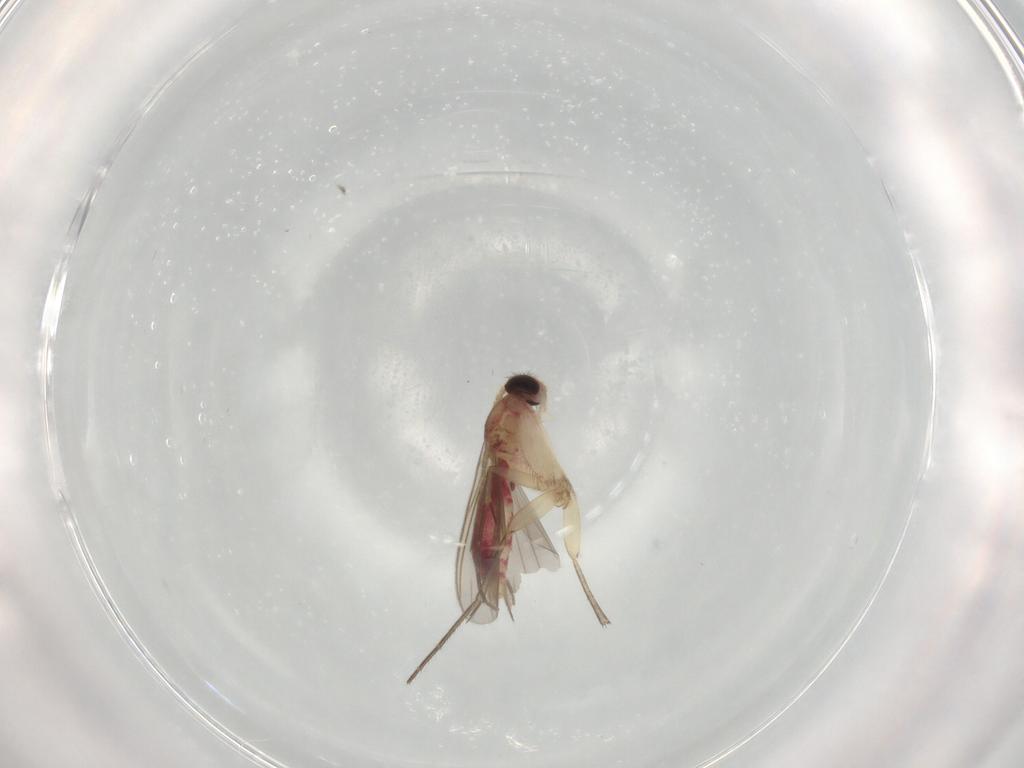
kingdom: Animalia
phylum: Arthropoda
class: Insecta
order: Diptera
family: Mycetophilidae
